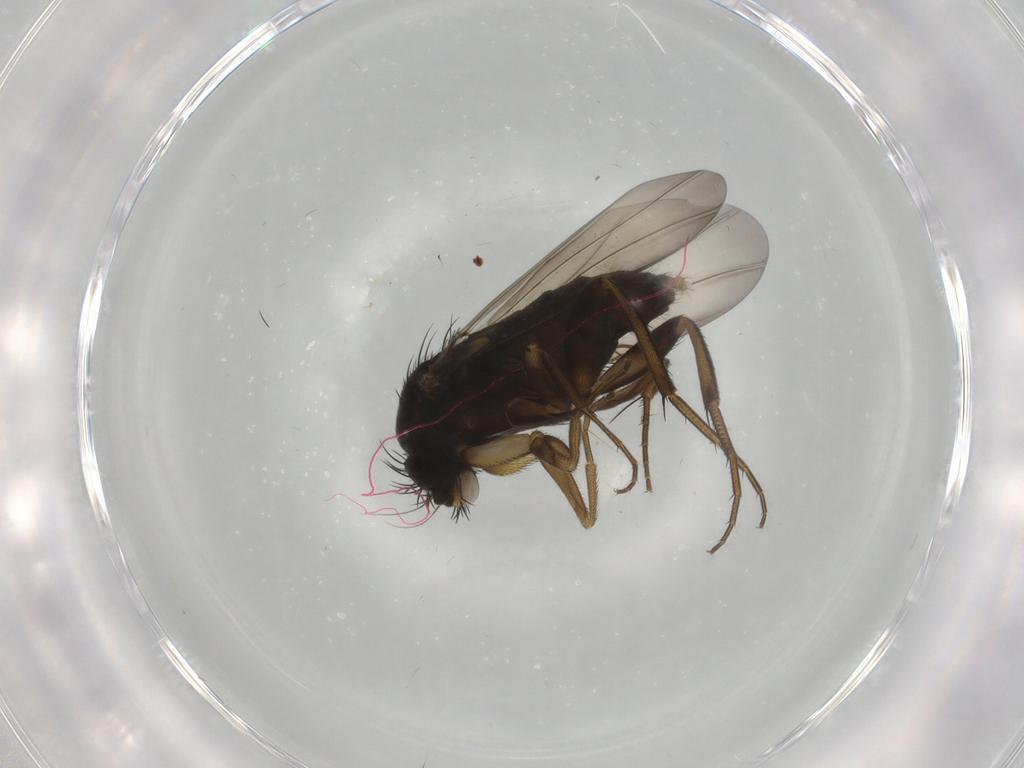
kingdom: Animalia
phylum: Arthropoda
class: Insecta
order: Diptera
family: Phoridae
